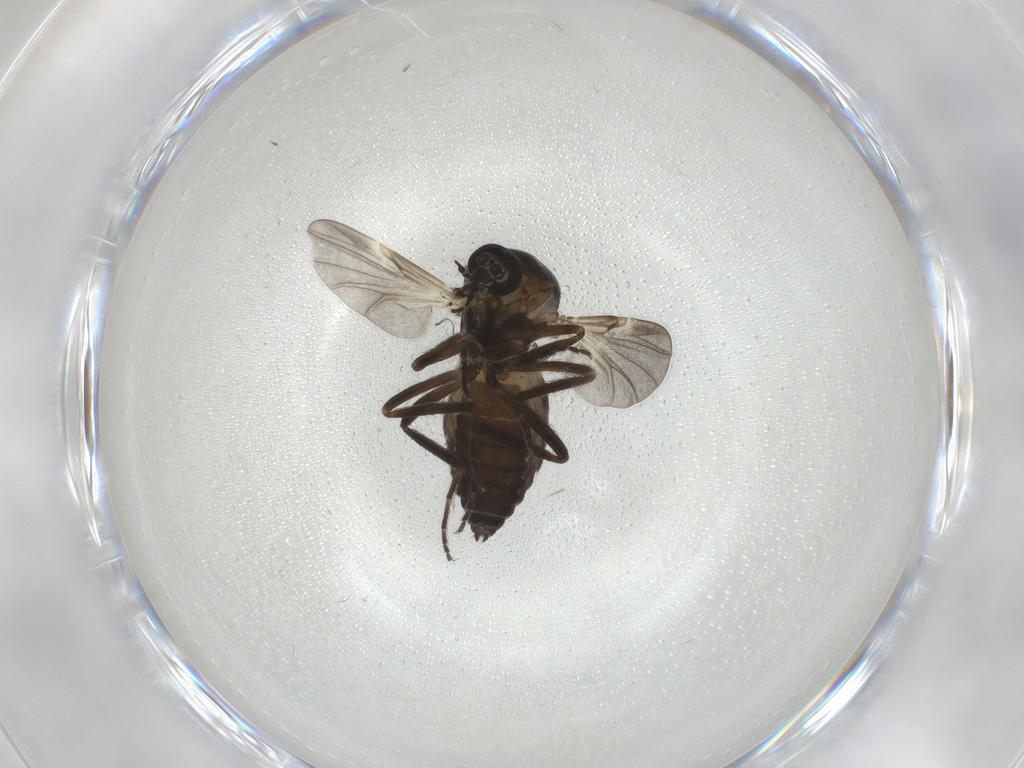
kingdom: Animalia
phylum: Arthropoda
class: Insecta
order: Diptera
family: Ceratopogonidae
